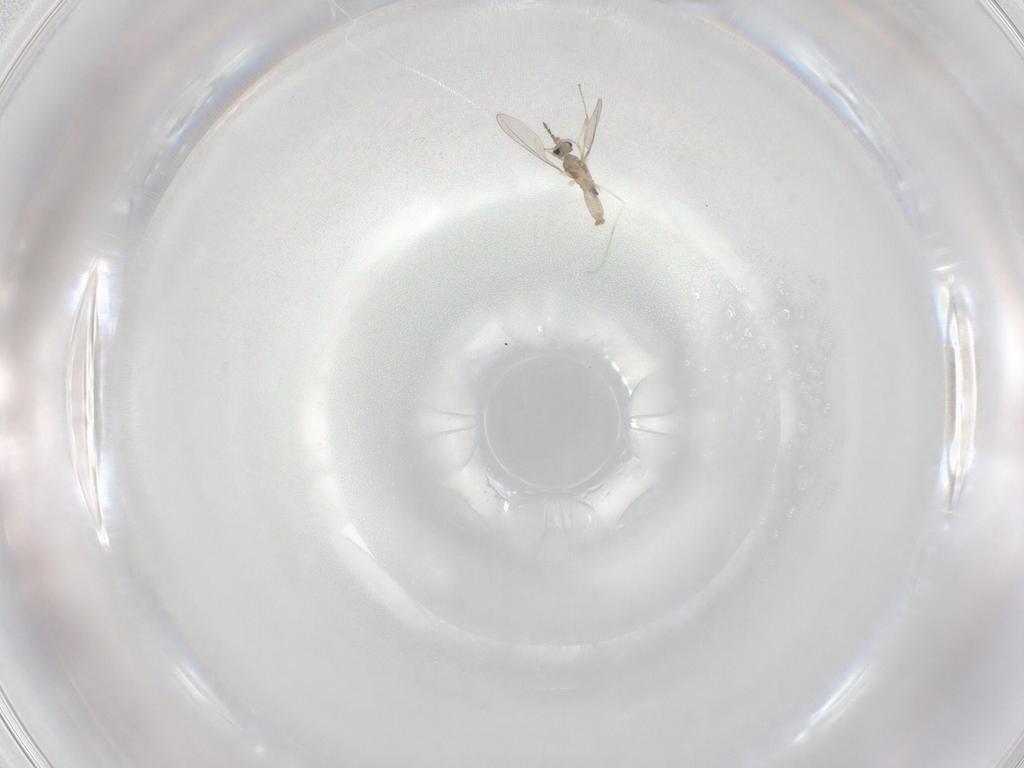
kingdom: Animalia
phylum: Arthropoda
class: Insecta
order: Diptera
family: Cecidomyiidae
